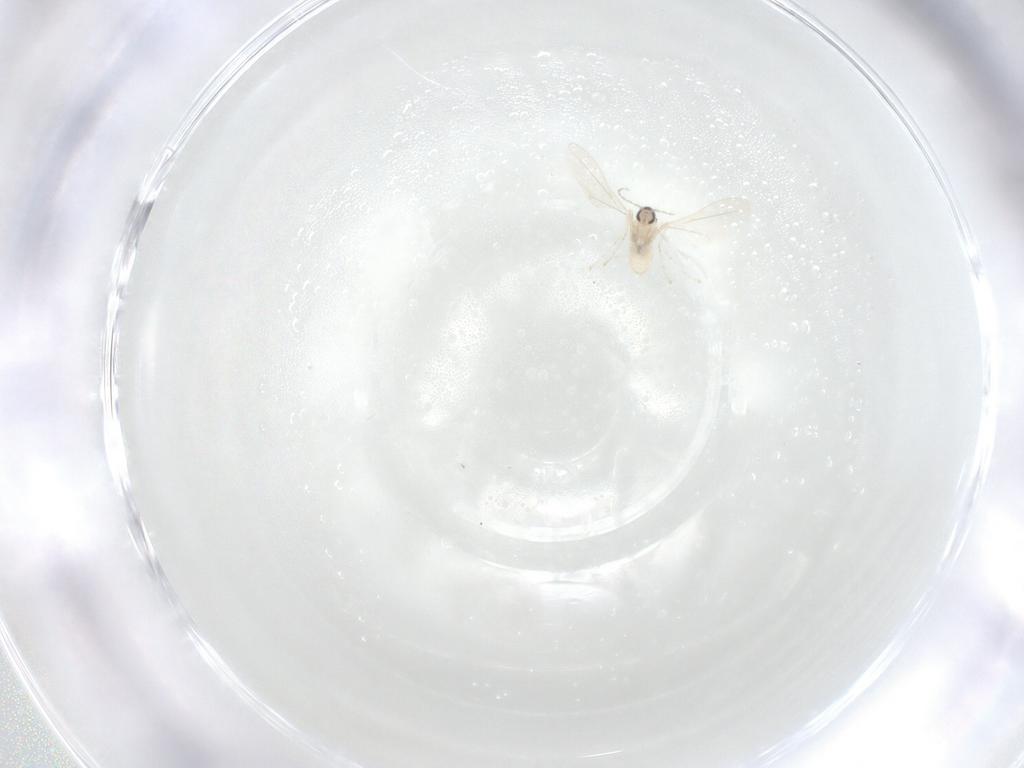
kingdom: Animalia
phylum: Arthropoda
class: Insecta
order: Diptera
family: Cecidomyiidae
